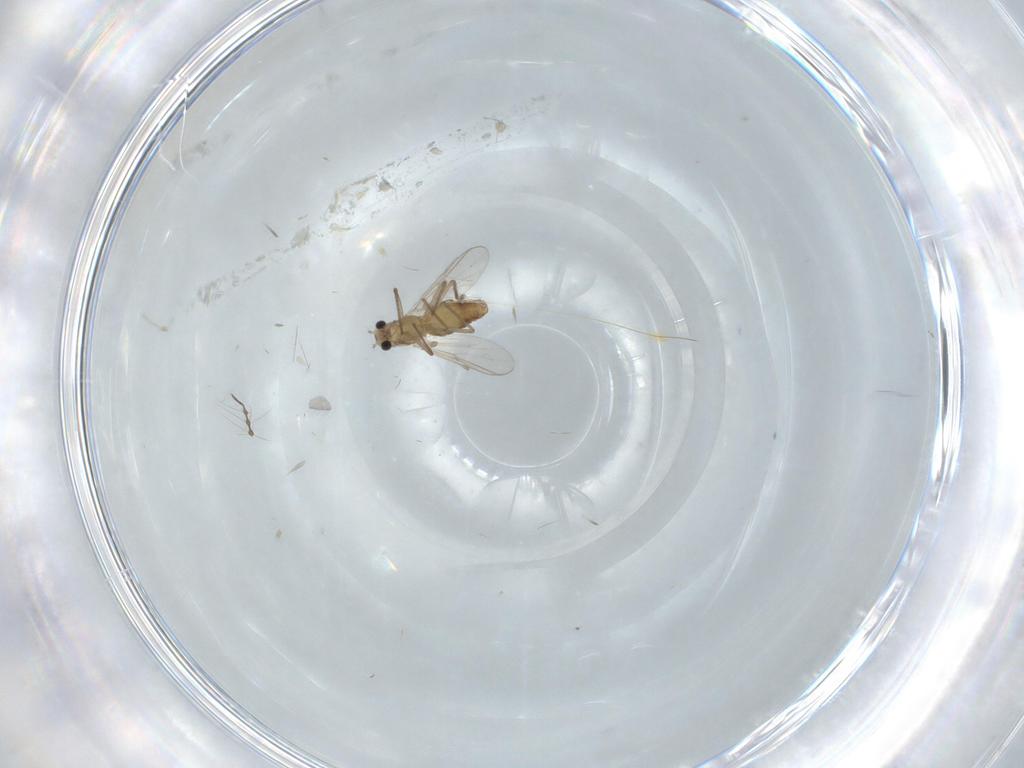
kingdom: Animalia
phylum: Arthropoda
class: Insecta
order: Diptera
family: Chironomidae
